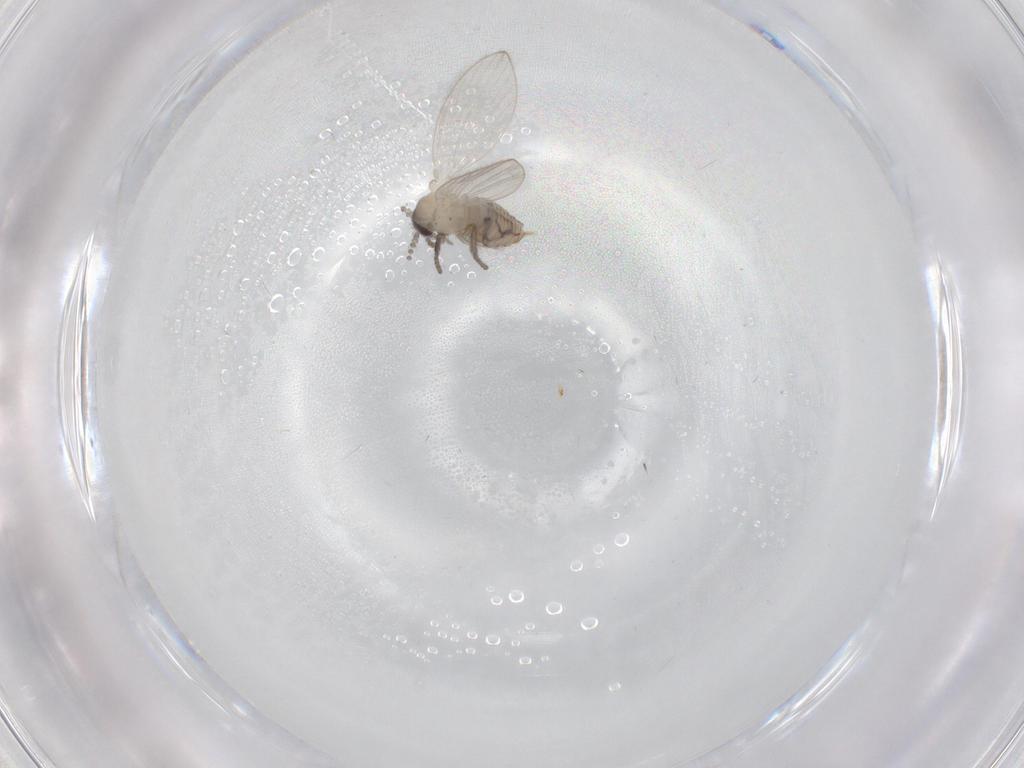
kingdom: Animalia
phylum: Arthropoda
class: Insecta
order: Diptera
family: Psychodidae
